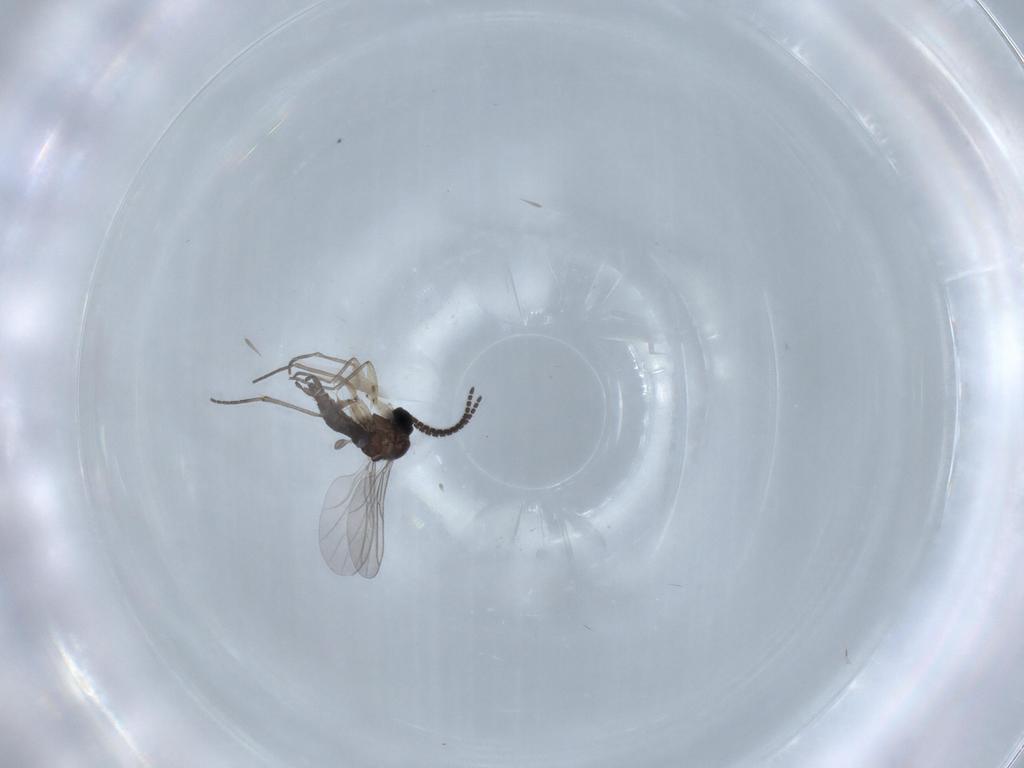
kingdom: Animalia
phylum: Arthropoda
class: Insecta
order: Diptera
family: Sciaridae
